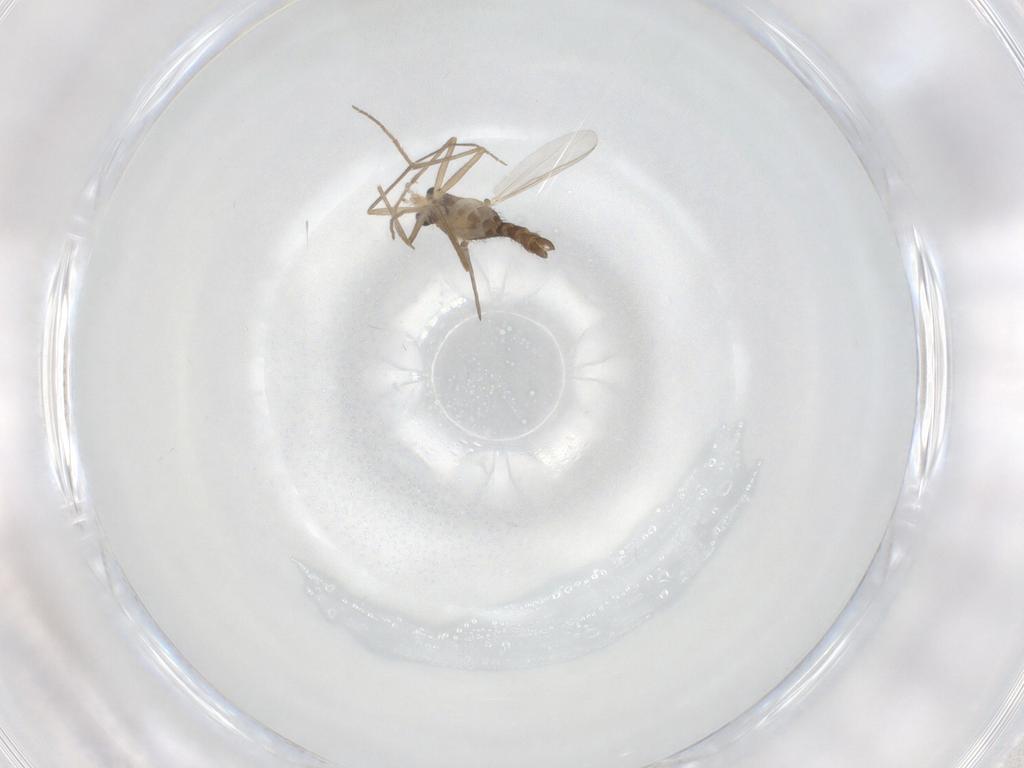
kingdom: Animalia
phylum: Arthropoda
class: Insecta
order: Diptera
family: Chironomidae
